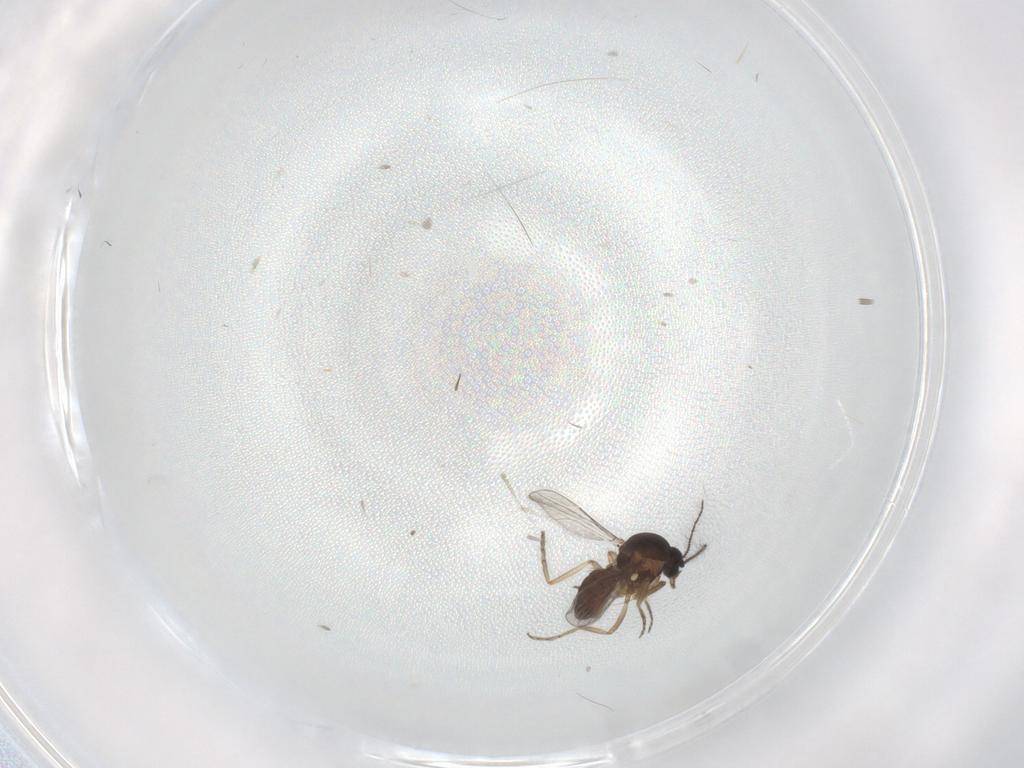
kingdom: Animalia
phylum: Arthropoda
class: Insecta
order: Diptera
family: Ceratopogonidae
